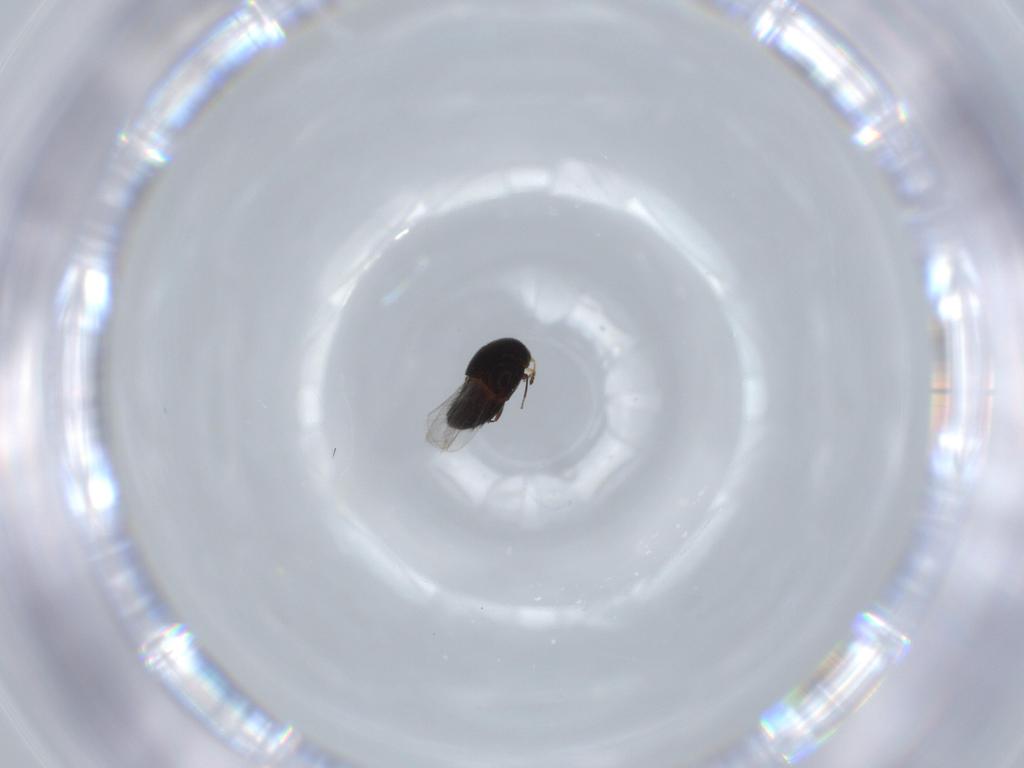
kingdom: Animalia
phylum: Arthropoda
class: Insecta
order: Coleoptera
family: Staphylinidae
